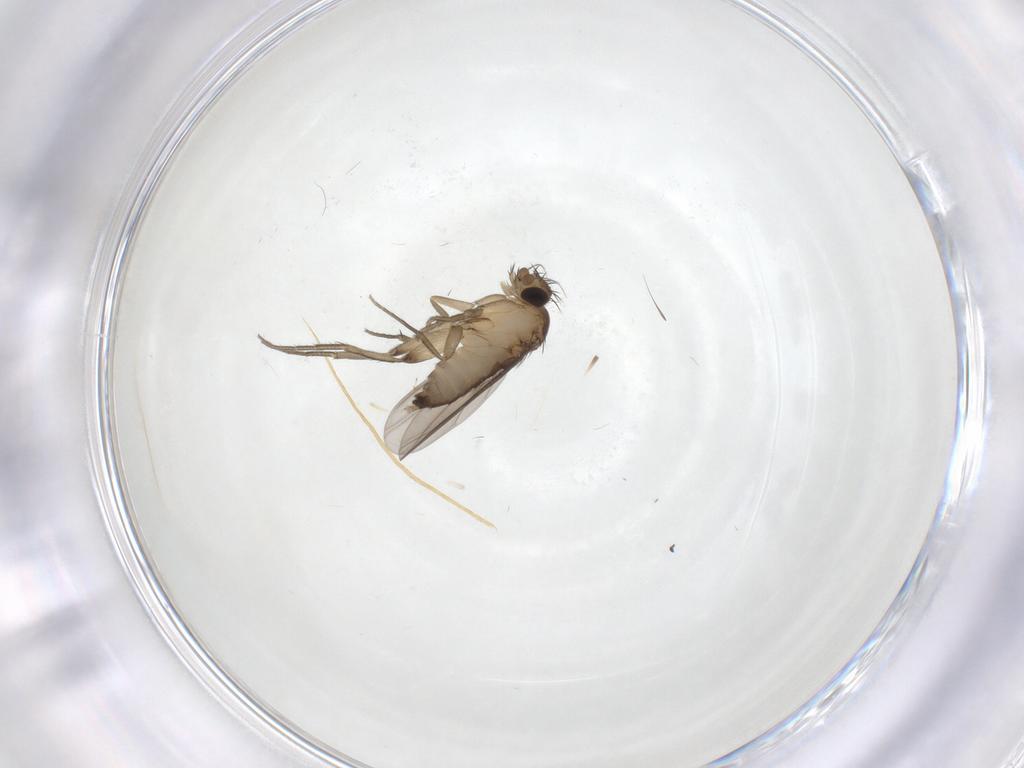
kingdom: Animalia
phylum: Arthropoda
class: Insecta
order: Diptera
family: Phoridae
